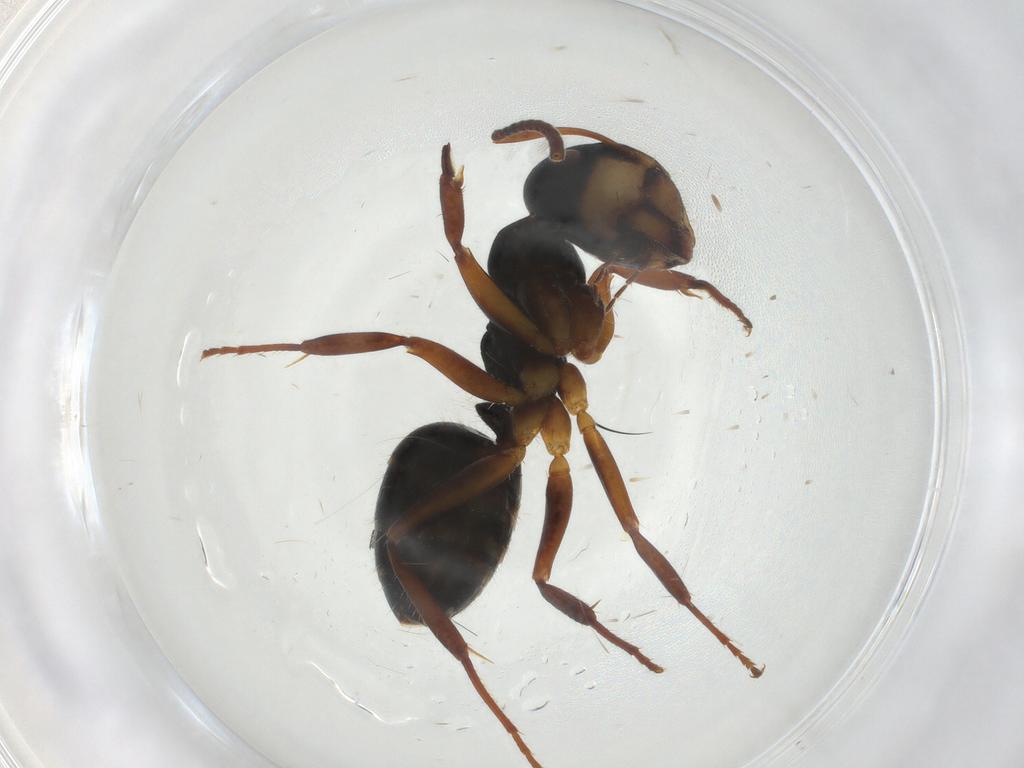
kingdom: Animalia
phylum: Arthropoda
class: Insecta
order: Hymenoptera
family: Formicidae
